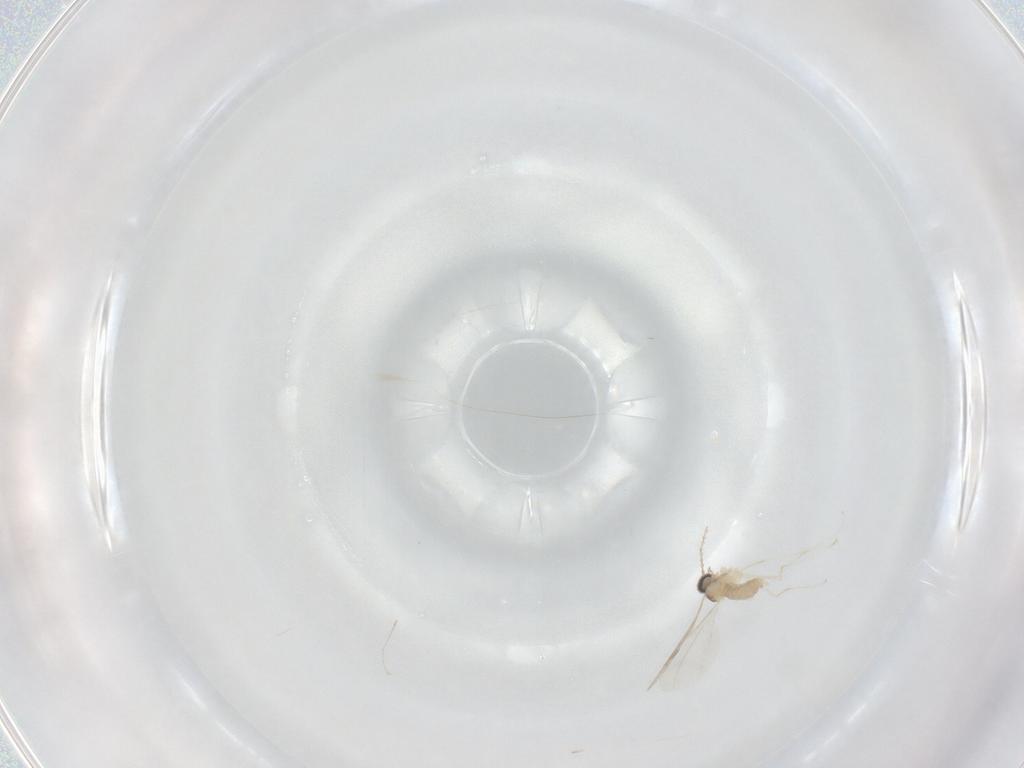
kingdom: Animalia
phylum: Arthropoda
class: Insecta
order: Diptera
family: Cecidomyiidae
